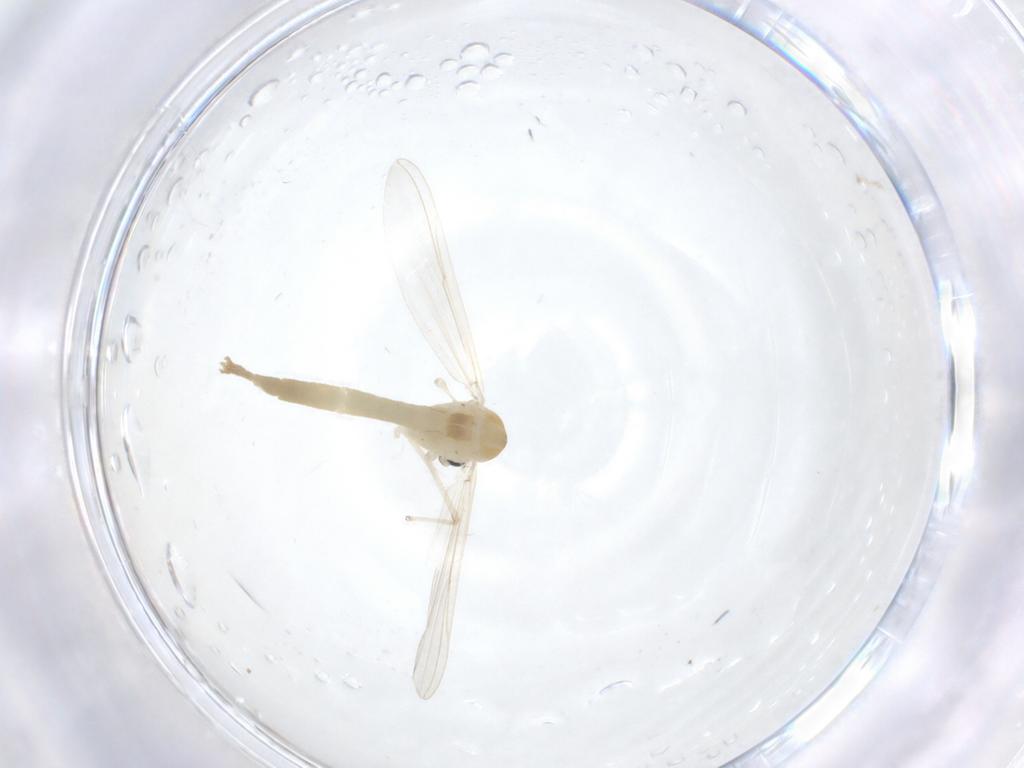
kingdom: Animalia
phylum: Arthropoda
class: Insecta
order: Diptera
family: Chironomidae
